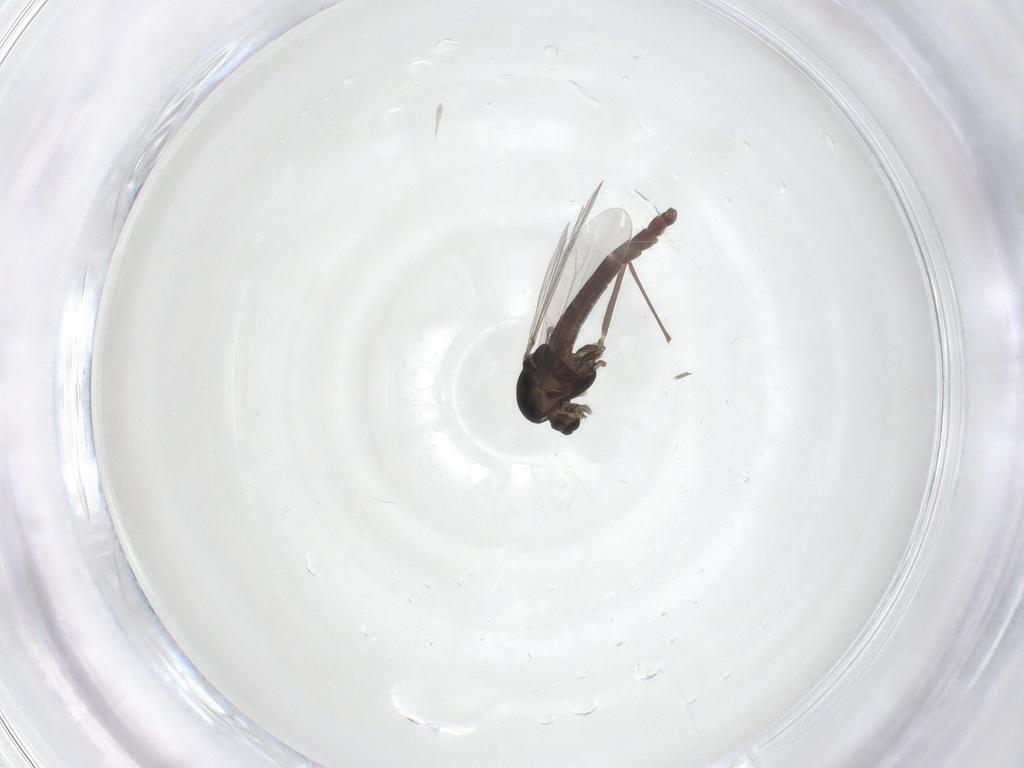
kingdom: Animalia
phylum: Arthropoda
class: Insecta
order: Diptera
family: Chironomidae
